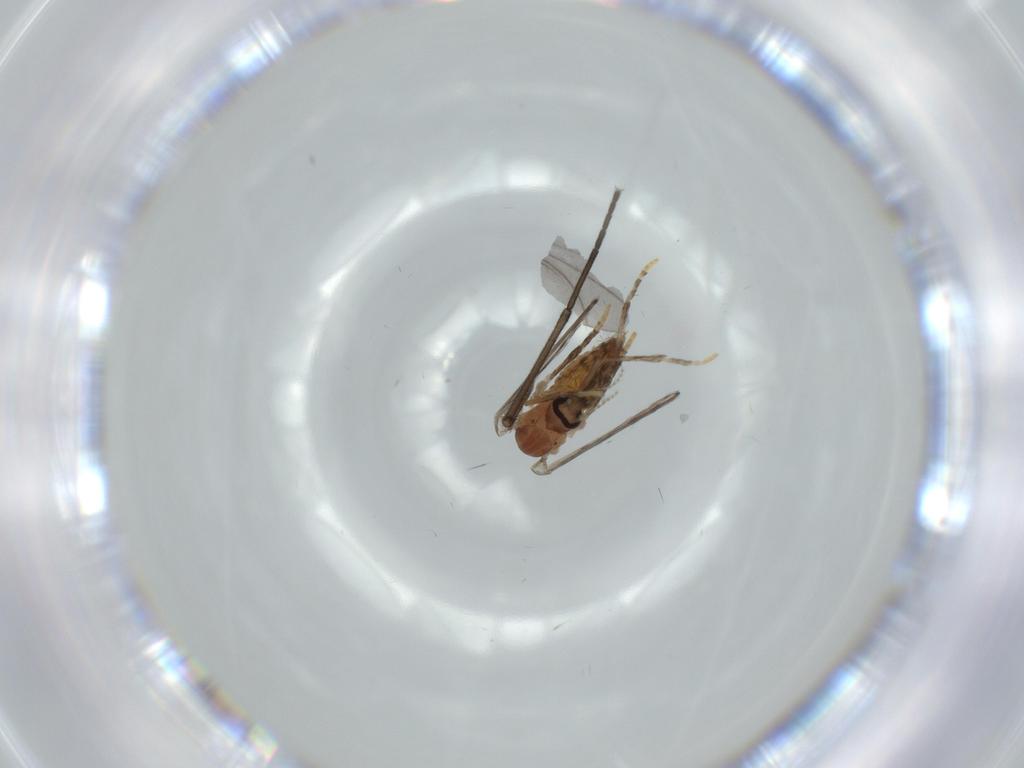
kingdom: Animalia
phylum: Arthropoda
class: Insecta
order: Diptera
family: Psychodidae
